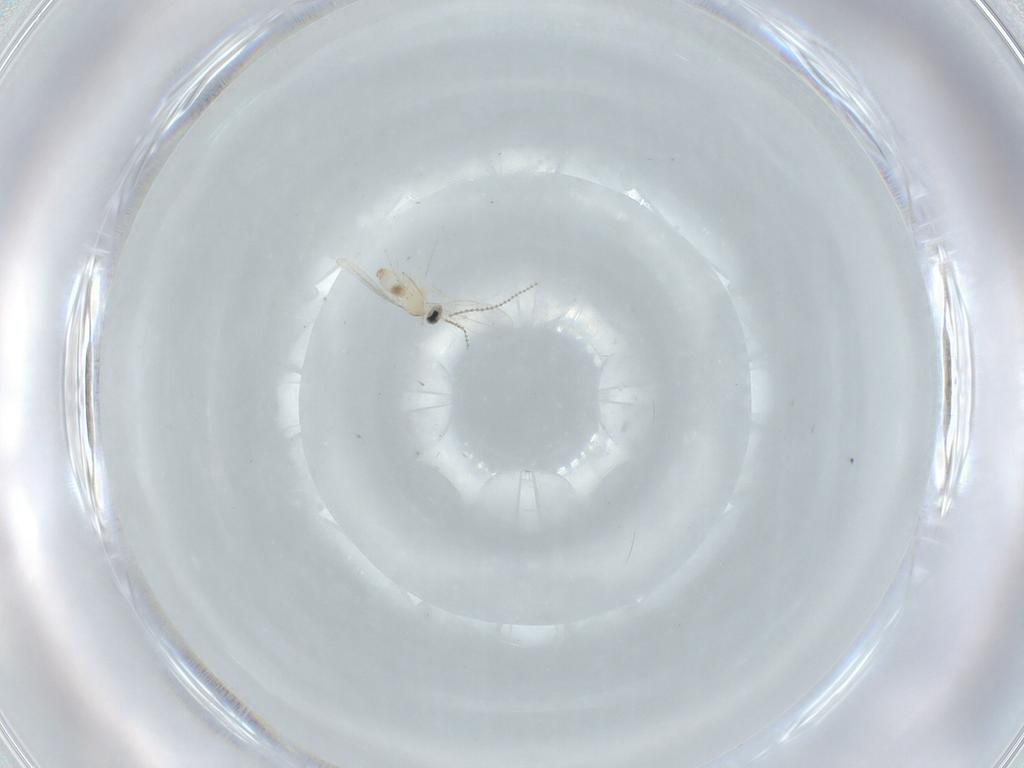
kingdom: Animalia
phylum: Arthropoda
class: Insecta
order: Diptera
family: Cecidomyiidae
